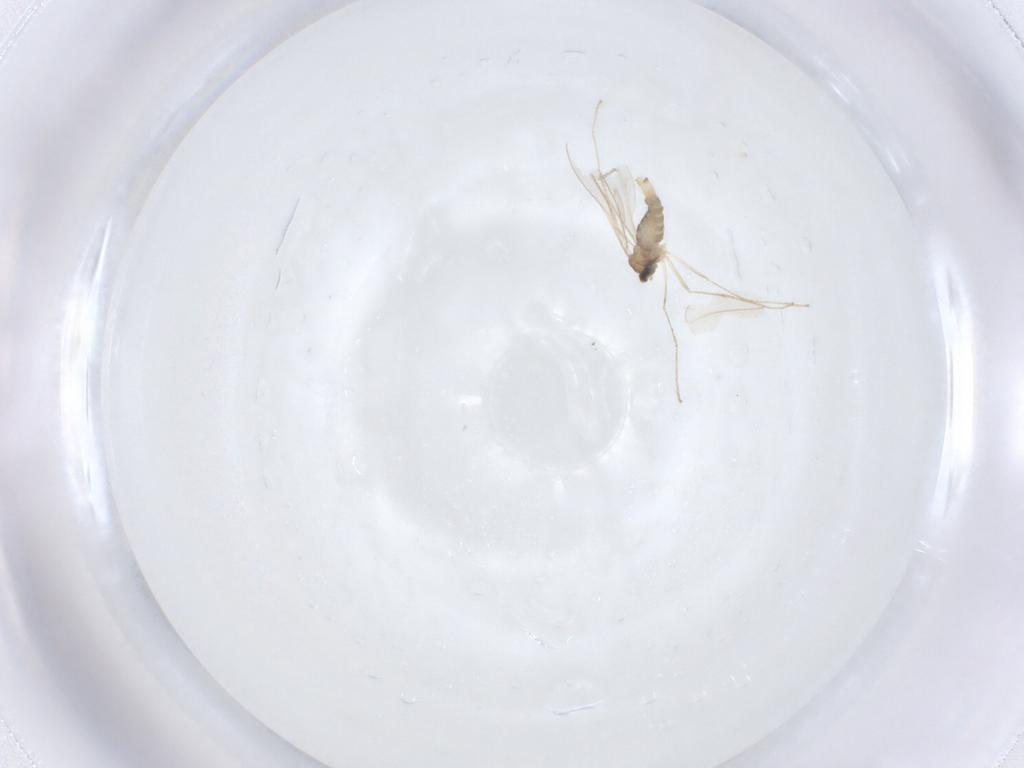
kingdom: Animalia
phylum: Arthropoda
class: Insecta
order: Diptera
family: Cecidomyiidae
